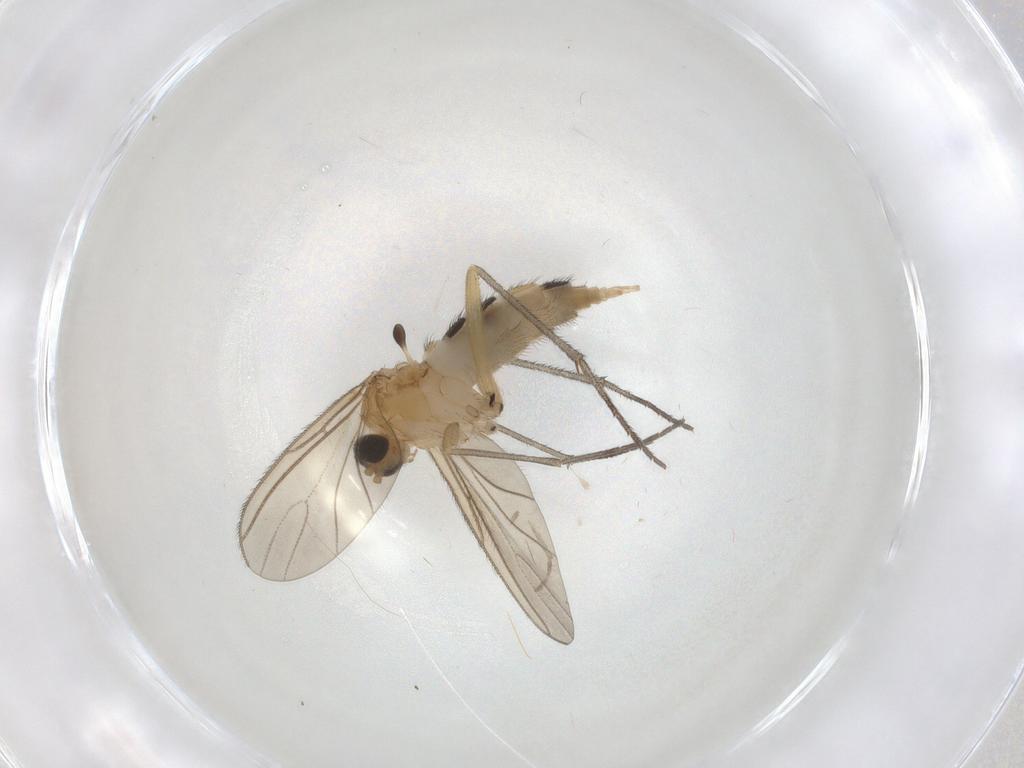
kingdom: Animalia
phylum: Arthropoda
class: Insecta
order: Diptera
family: Sciaridae
